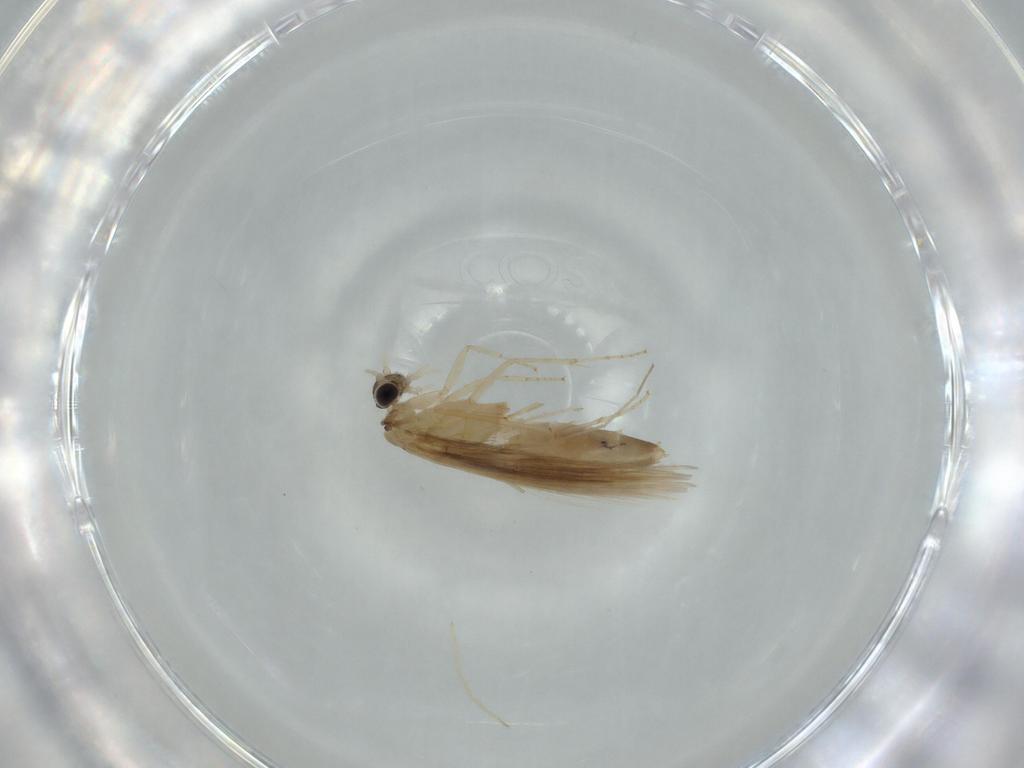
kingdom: Animalia
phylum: Arthropoda
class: Insecta
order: Trichoptera
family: Hydroptilidae
